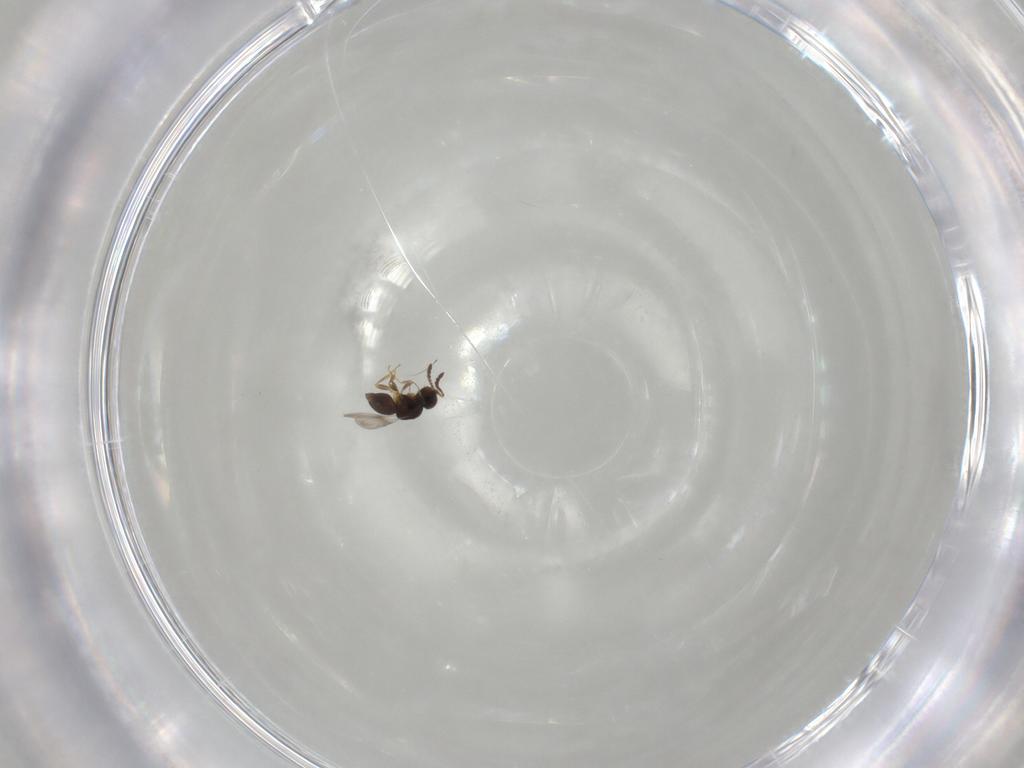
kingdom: Animalia
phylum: Arthropoda
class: Insecta
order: Hymenoptera
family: Ceraphronidae
